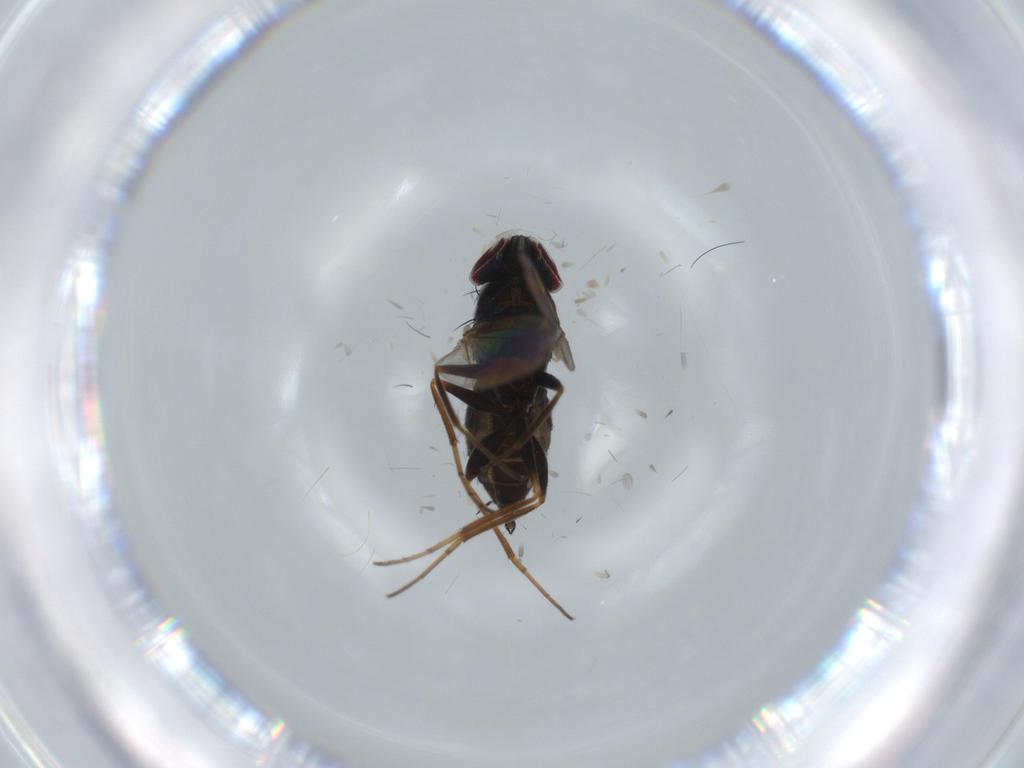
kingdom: Animalia
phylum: Arthropoda
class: Insecta
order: Diptera
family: Dolichopodidae
